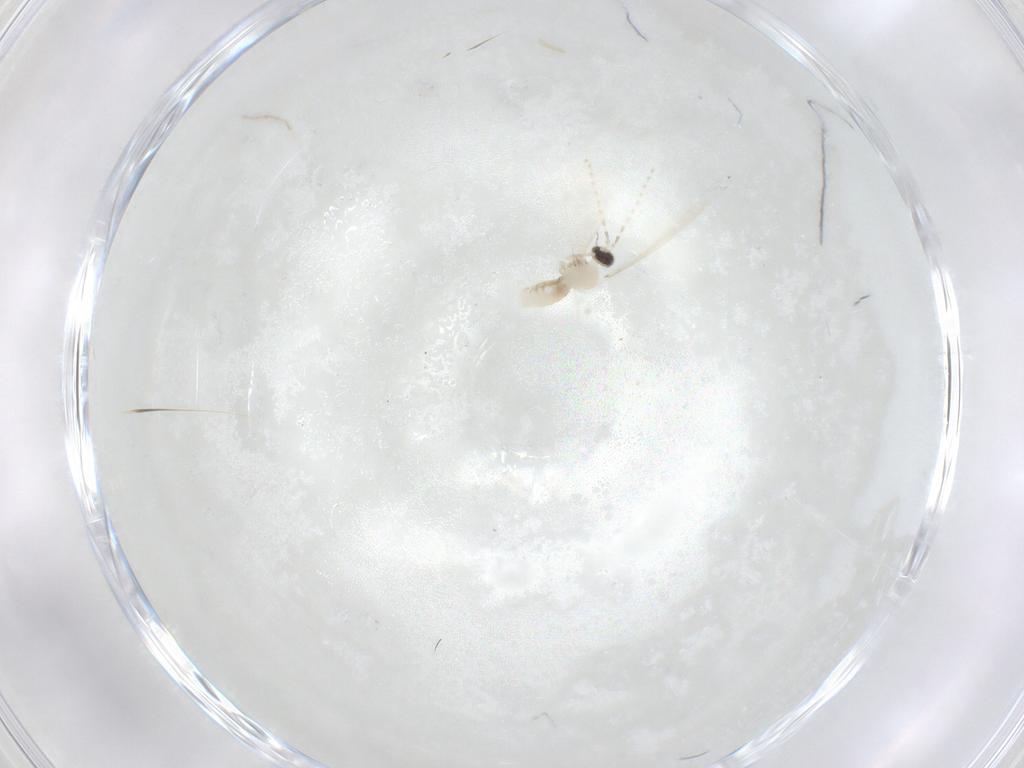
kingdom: Animalia
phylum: Arthropoda
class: Insecta
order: Diptera
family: Cecidomyiidae
